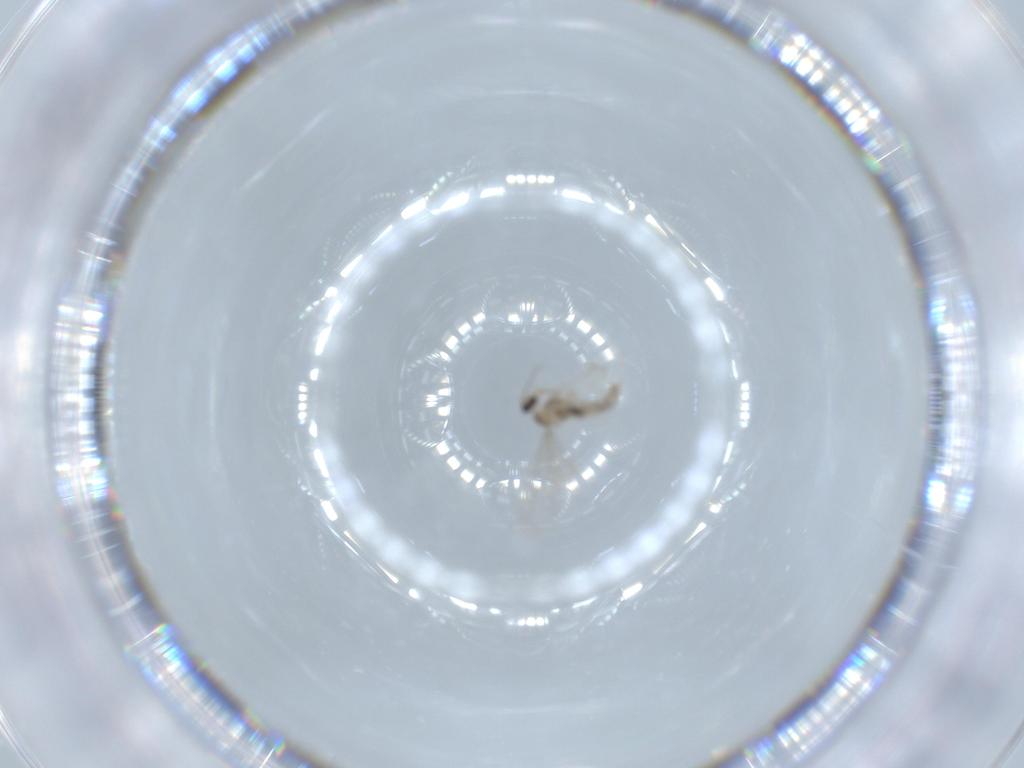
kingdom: Animalia
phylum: Arthropoda
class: Insecta
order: Diptera
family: Cecidomyiidae
